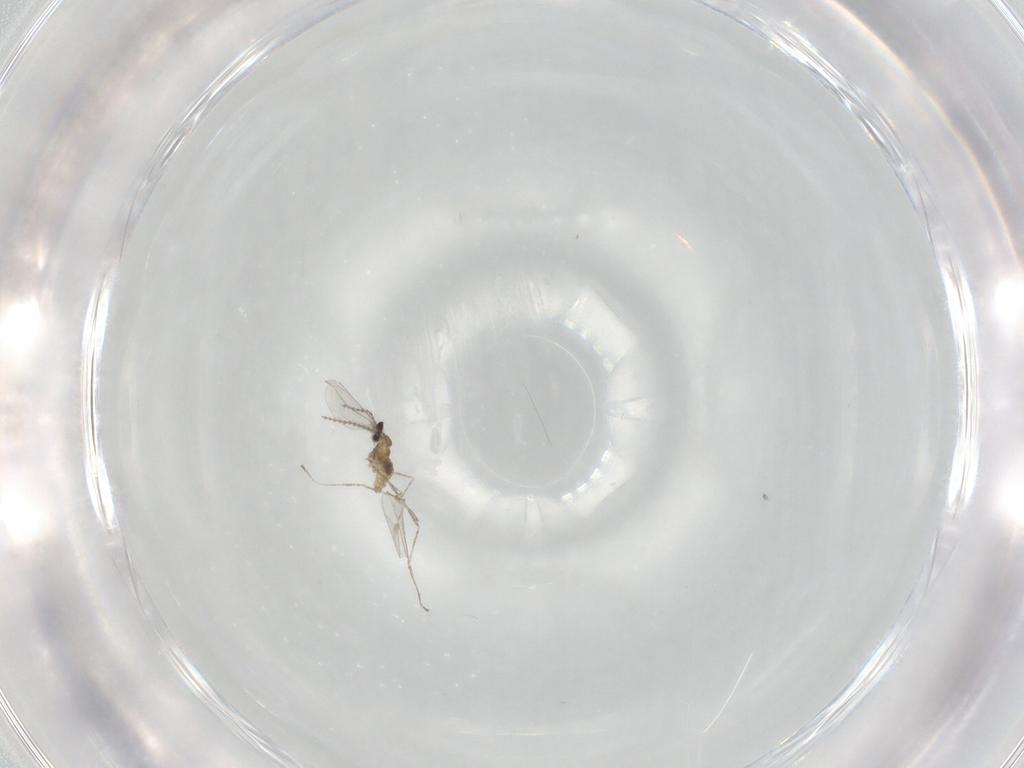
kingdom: Animalia
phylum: Arthropoda
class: Insecta
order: Diptera
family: Cecidomyiidae
